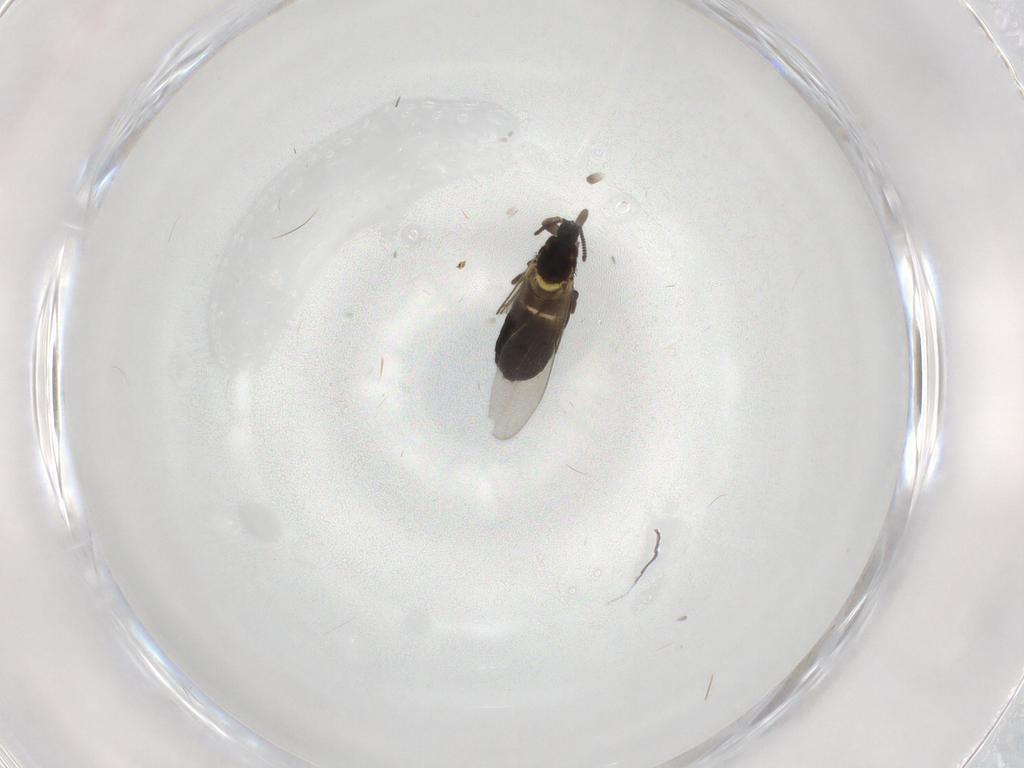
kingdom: Animalia
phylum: Arthropoda
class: Insecta
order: Diptera
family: Scatopsidae
